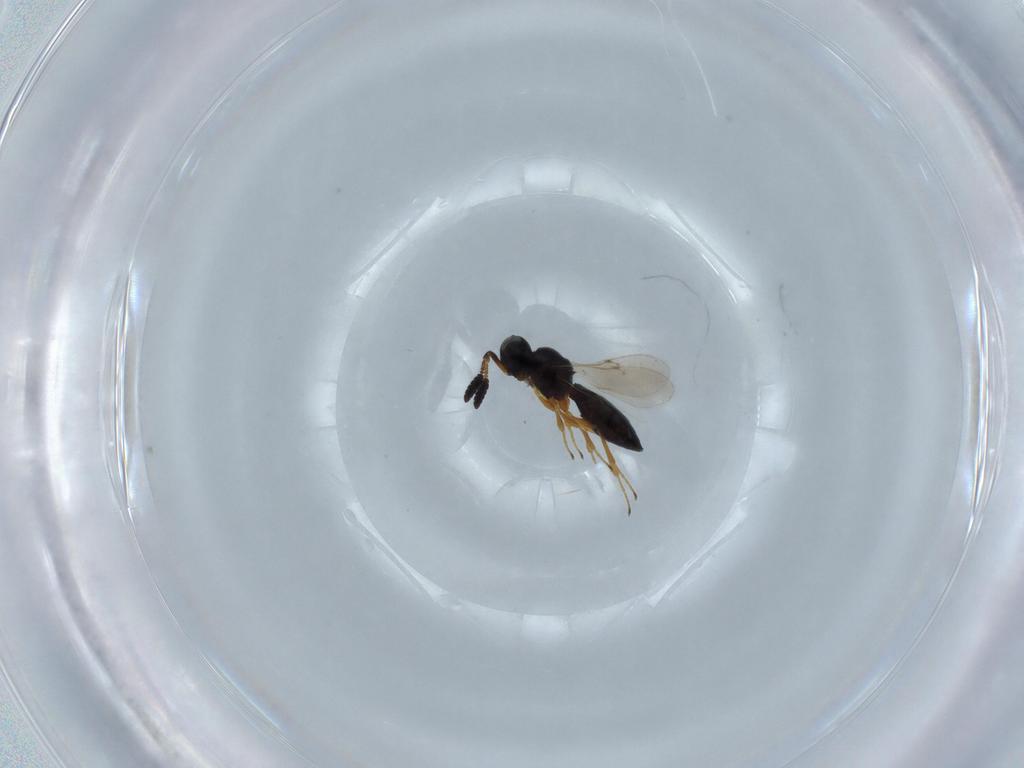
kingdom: Animalia
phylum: Arthropoda
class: Insecta
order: Hymenoptera
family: Scelionidae
